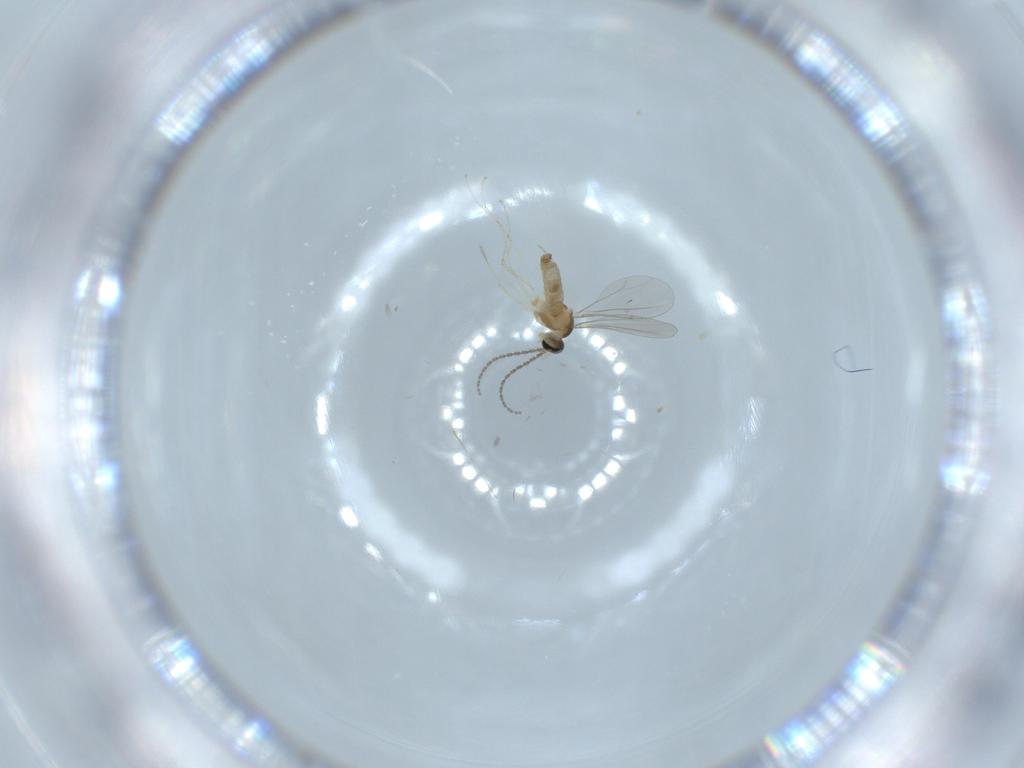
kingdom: Animalia
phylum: Arthropoda
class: Insecta
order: Diptera
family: Cecidomyiidae
